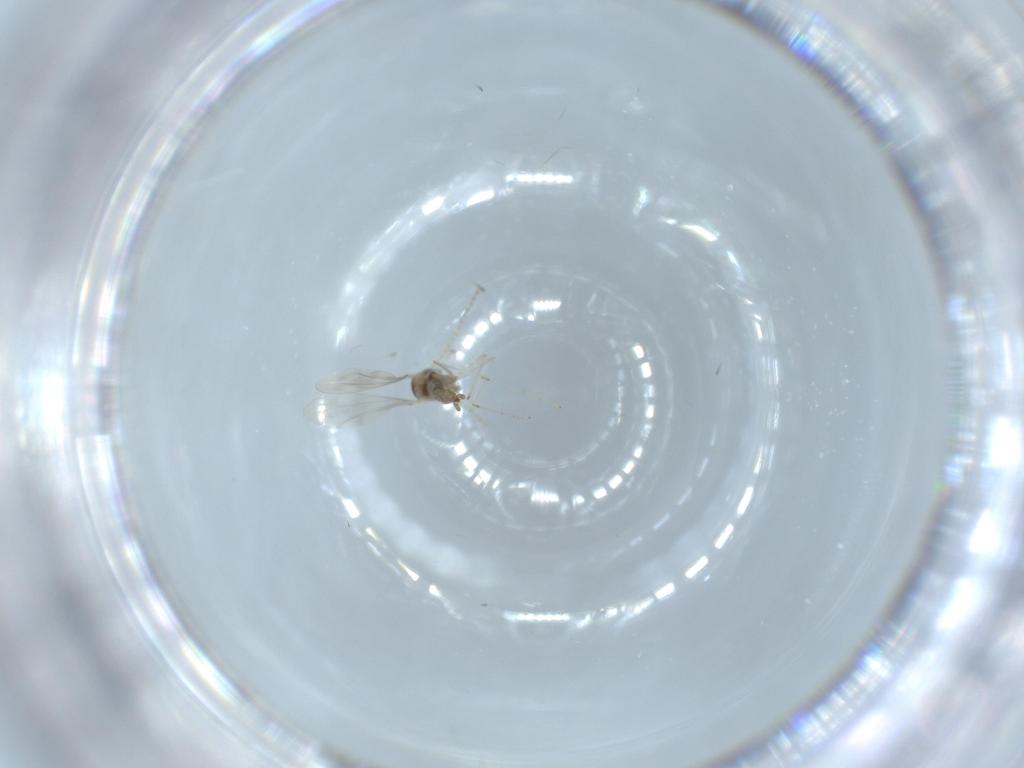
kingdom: Animalia
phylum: Arthropoda
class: Insecta
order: Diptera
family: Cecidomyiidae
